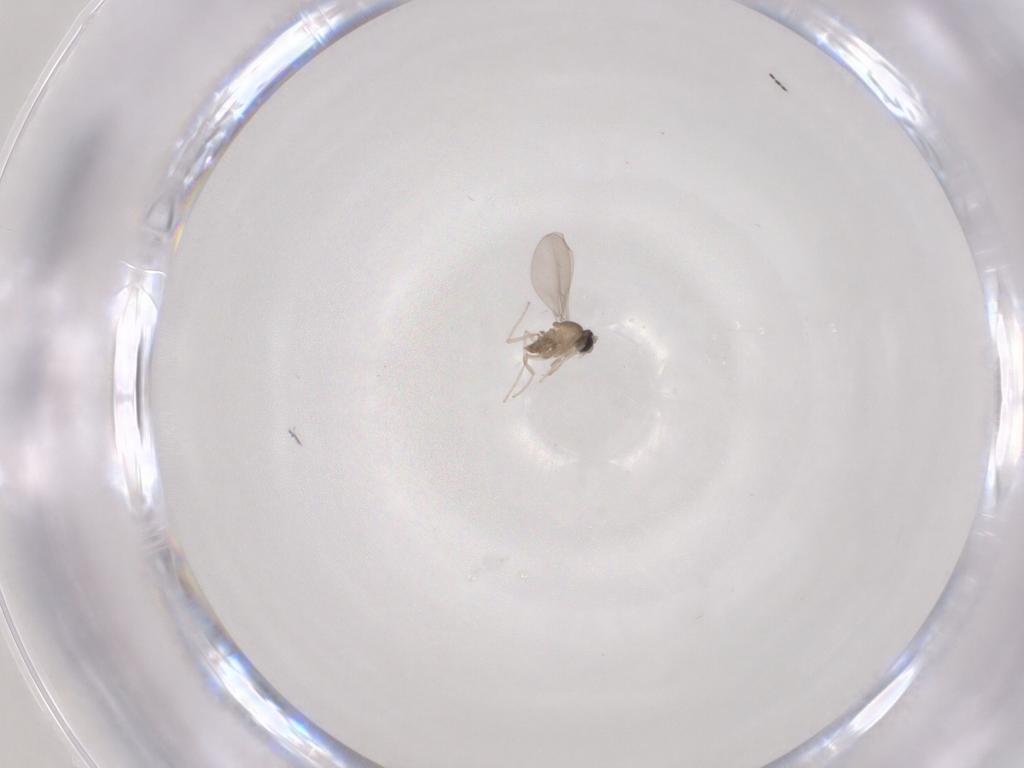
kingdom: Animalia
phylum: Arthropoda
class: Insecta
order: Diptera
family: Cecidomyiidae
